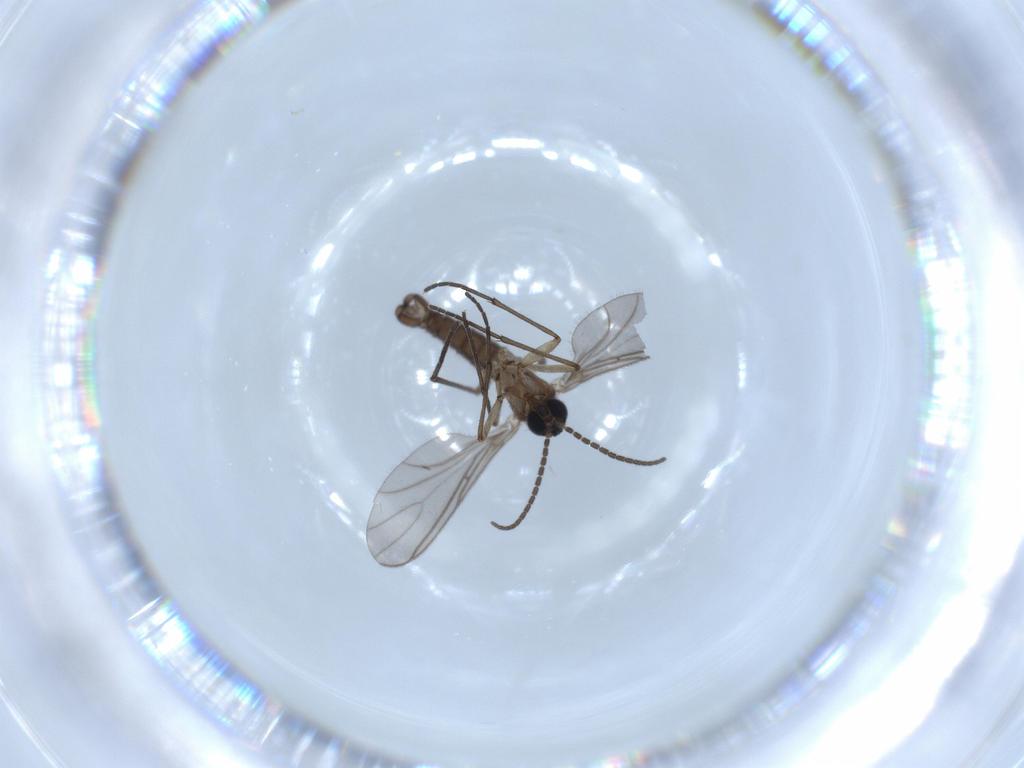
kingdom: Animalia
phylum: Arthropoda
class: Insecta
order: Diptera
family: Sciaridae
